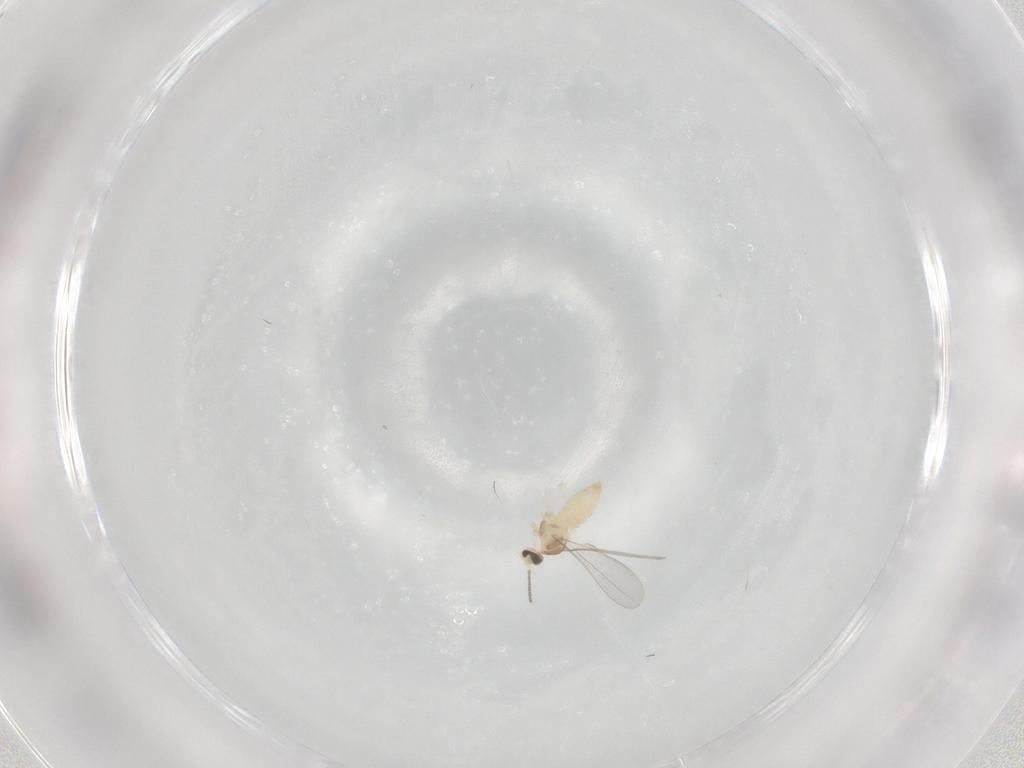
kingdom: Animalia
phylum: Arthropoda
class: Insecta
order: Diptera
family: Cecidomyiidae
